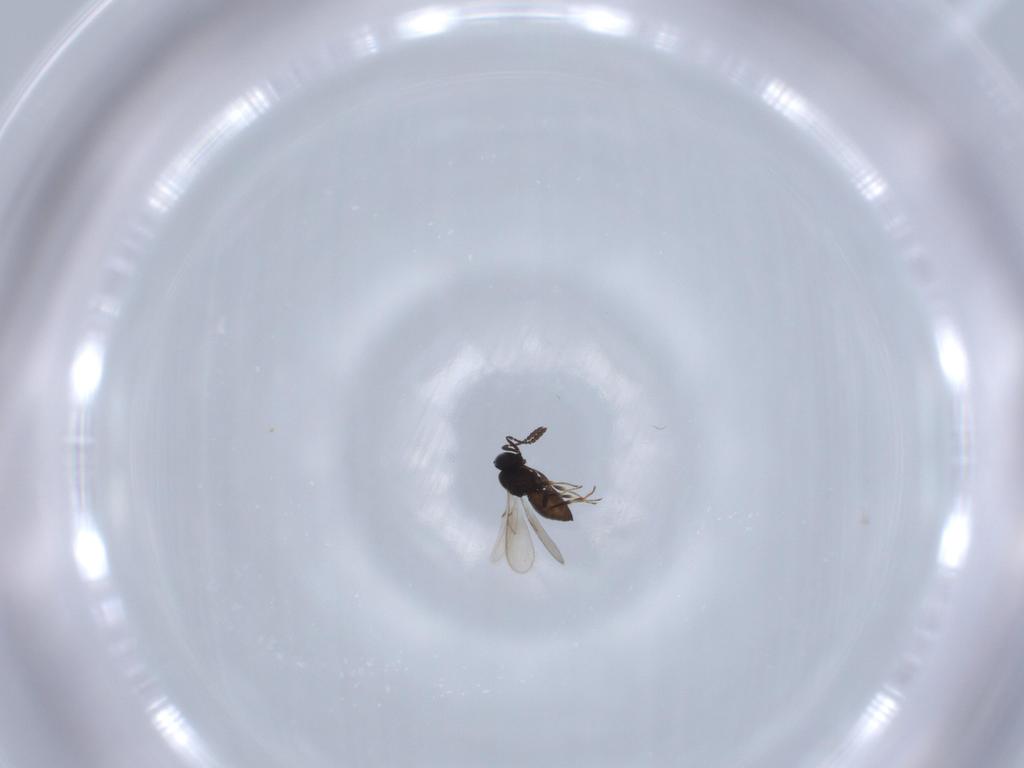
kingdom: Animalia
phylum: Arthropoda
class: Insecta
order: Hymenoptera
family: Scelionidae
